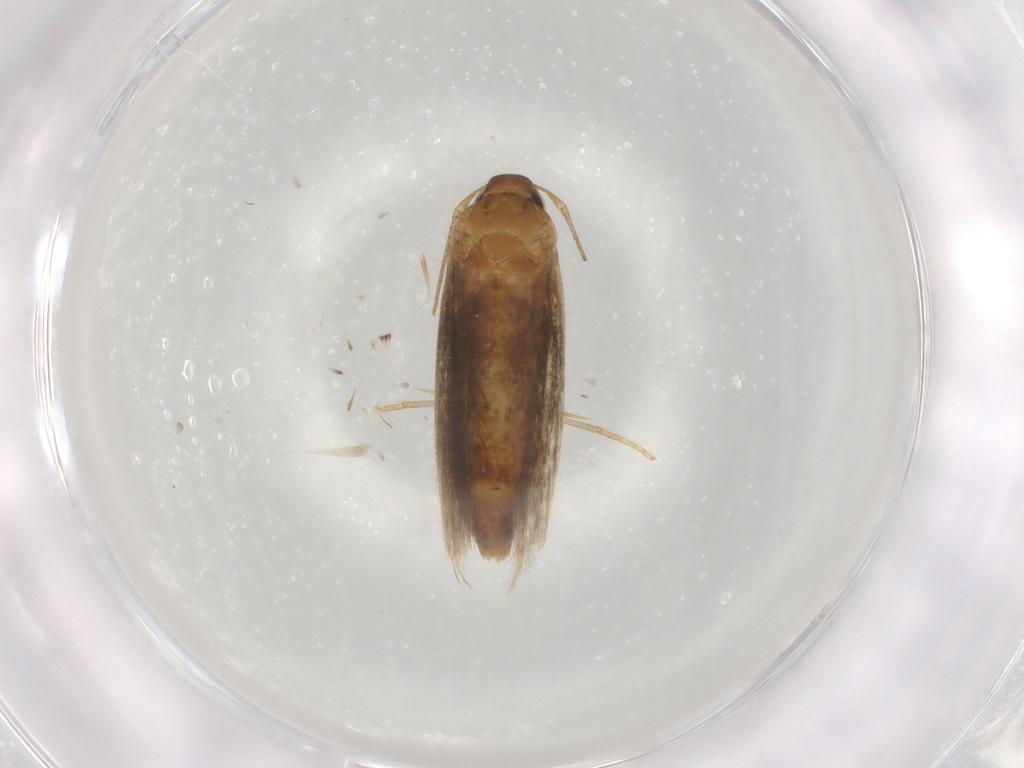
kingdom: Animalia
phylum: Arthropoda
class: Insecta
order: Lepidoptera
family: Cosmopterigidae
